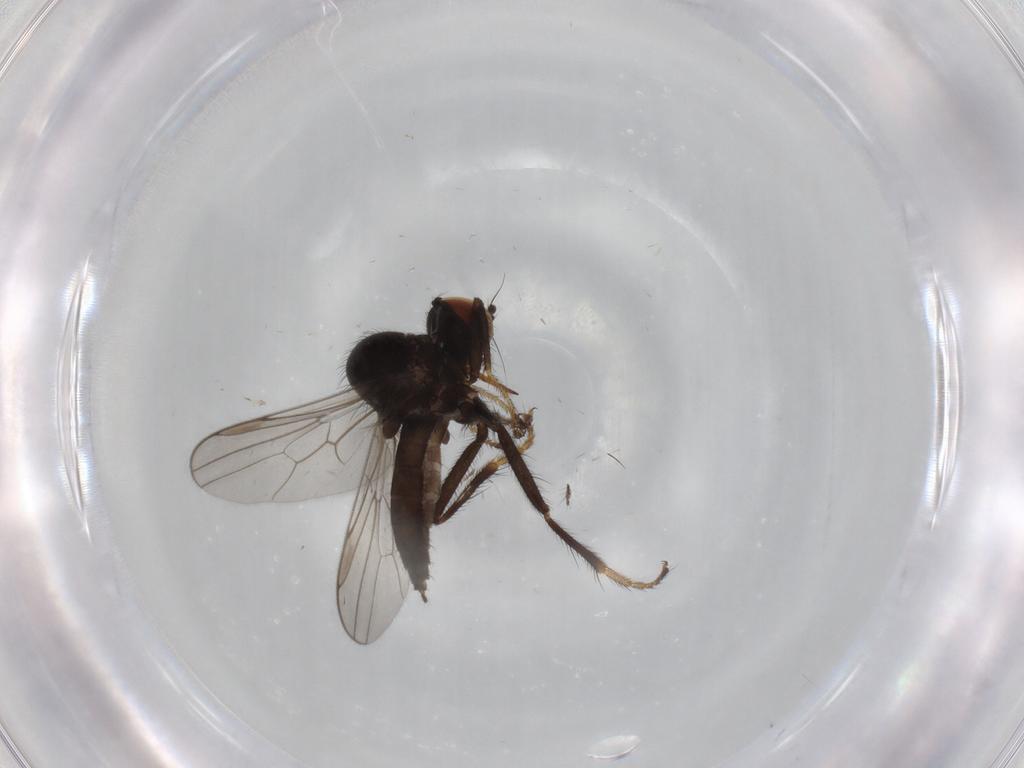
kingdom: Animalia
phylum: Arthropoda
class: Insecta
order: Diptera
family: Hybotidae
